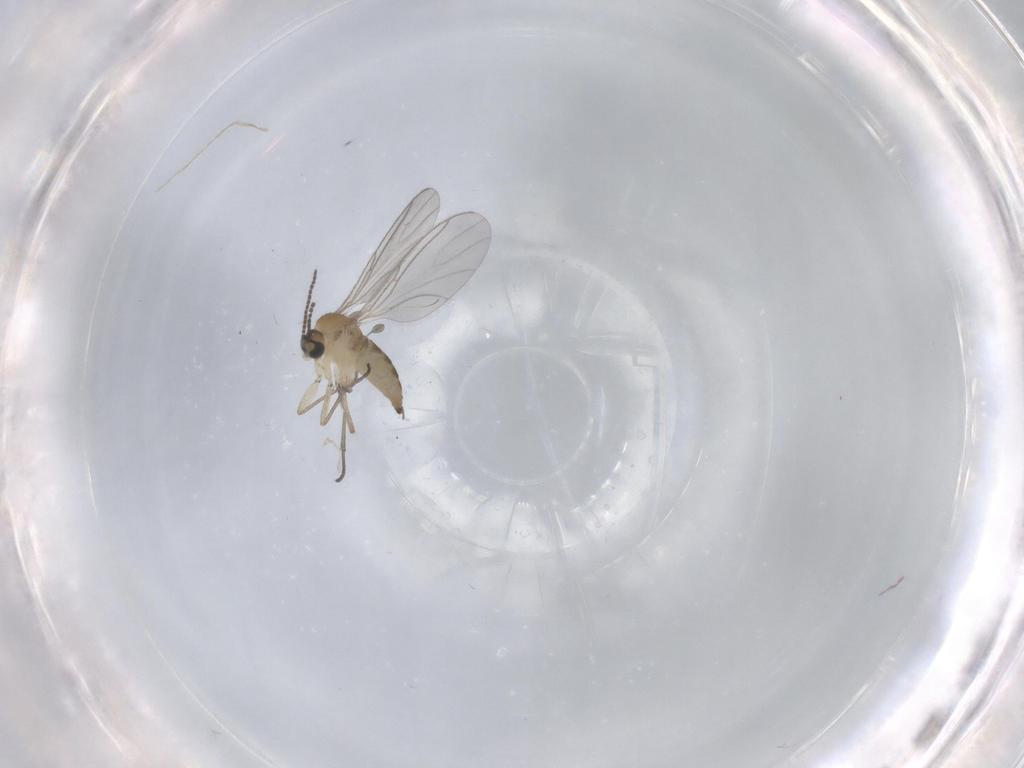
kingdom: Animalia
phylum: Arthropoda
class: Insecta
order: Diptera
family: Sciaridae
